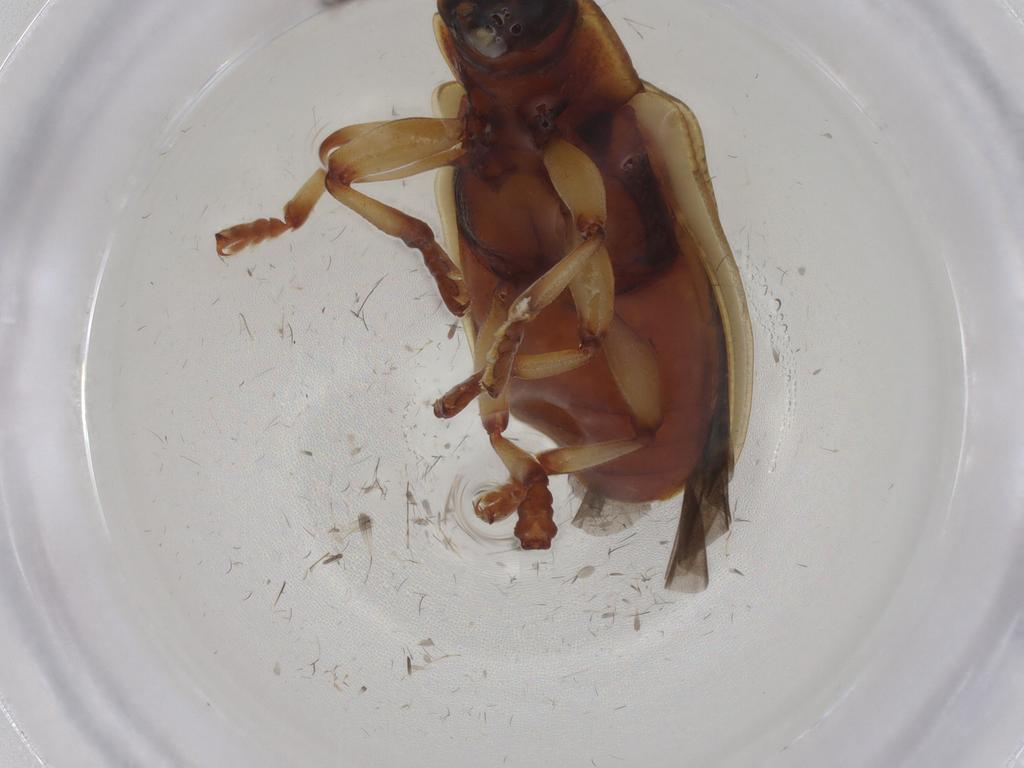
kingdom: Animalia
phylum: Arthropoda
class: Insecta
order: Coleoptera
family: Chrysomelidae
